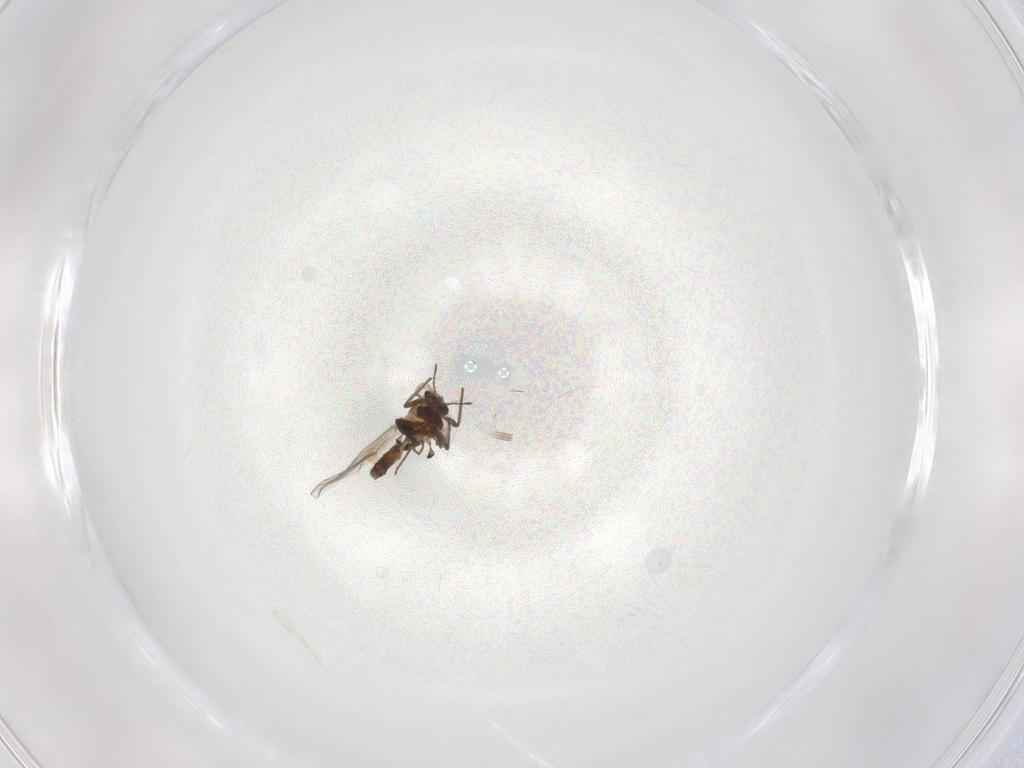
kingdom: Animalia
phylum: Arthropoda
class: Insecta
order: Diptera
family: Chironomidae
